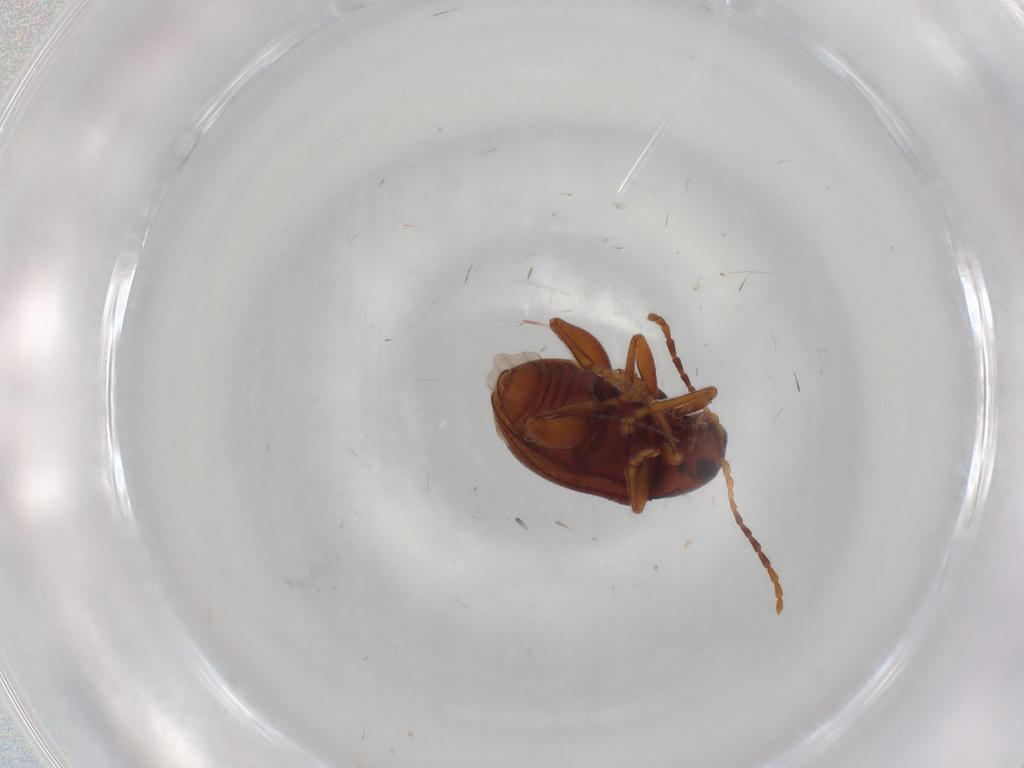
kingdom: Animalia
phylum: Arthropoda
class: Insecta
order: Coleoptera
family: Chrysomelidae
